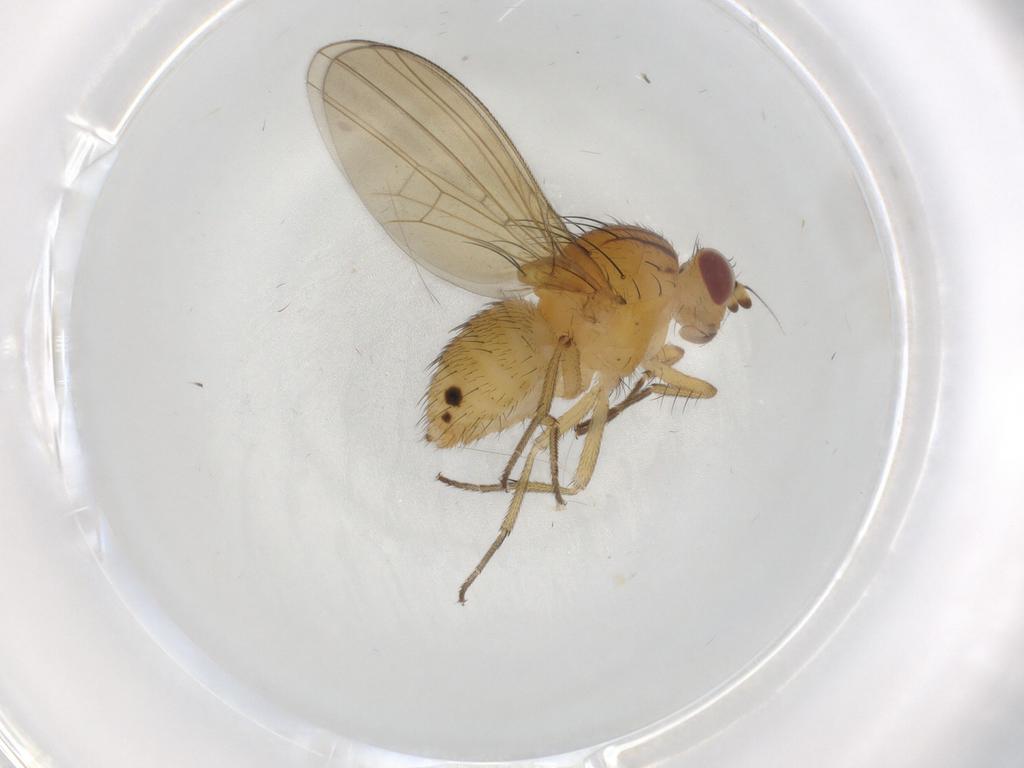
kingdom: Animalia
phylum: Arthropoda
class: Insecta
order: Diptera
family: Cecidomyiidae
